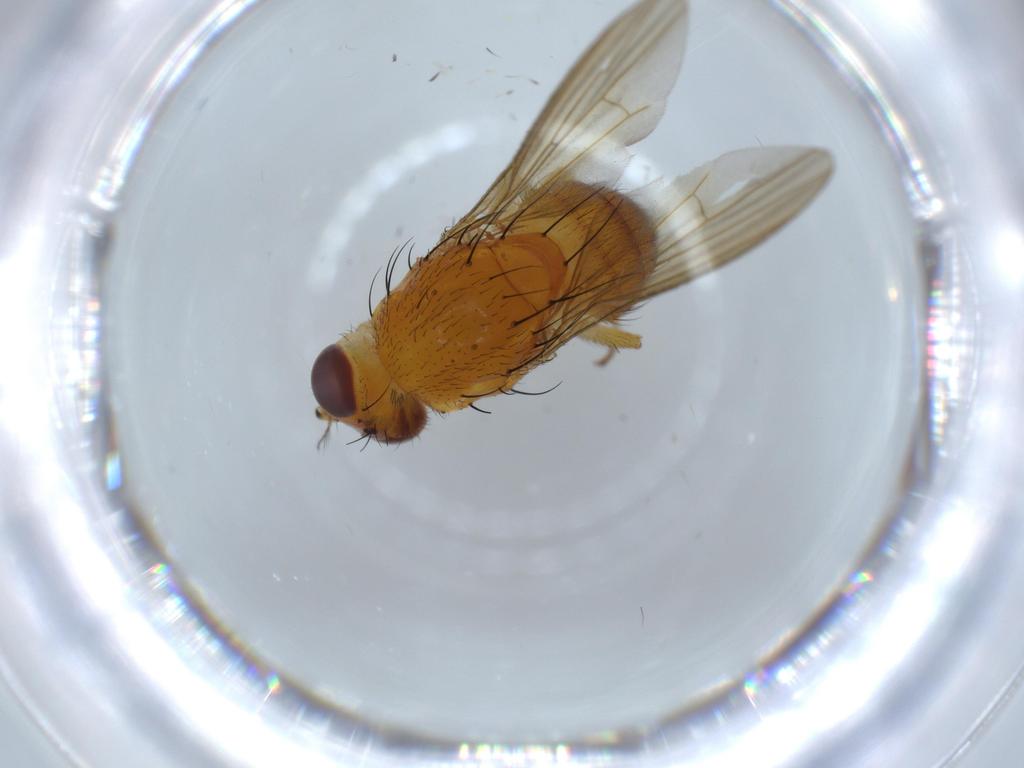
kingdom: Animalia
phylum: Arthropoda
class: Insecta
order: Diptera
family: Lauxaniidae
